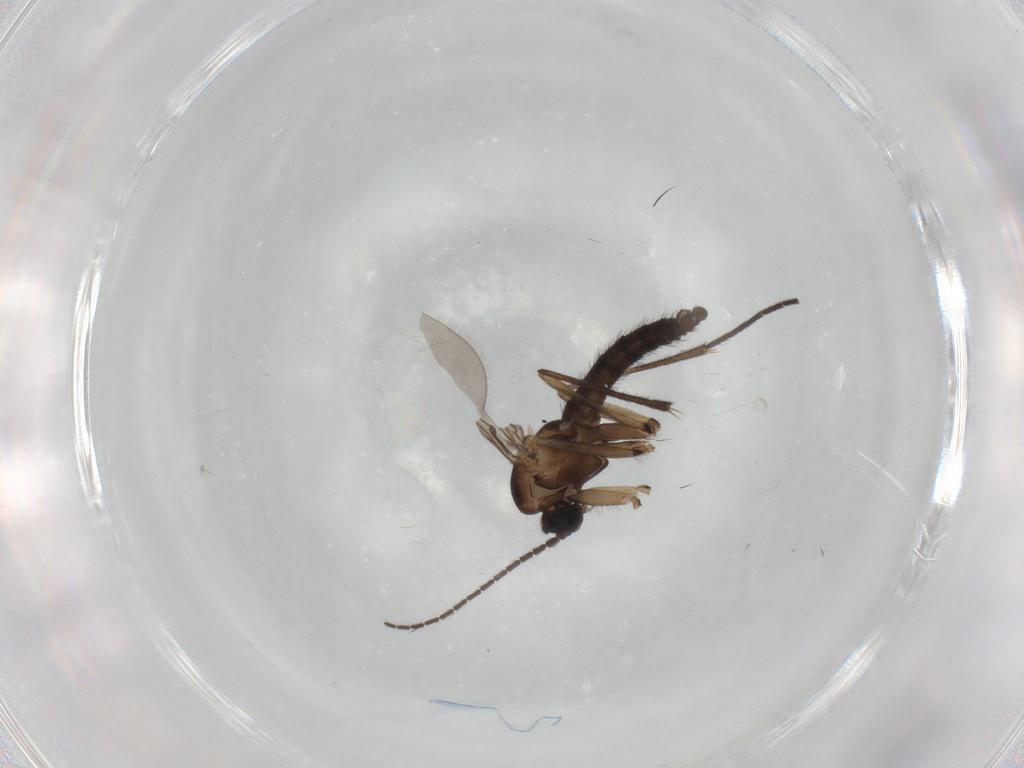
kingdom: Animalia
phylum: Arthropoda
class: Insecta
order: Diptera
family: Sciaridae
